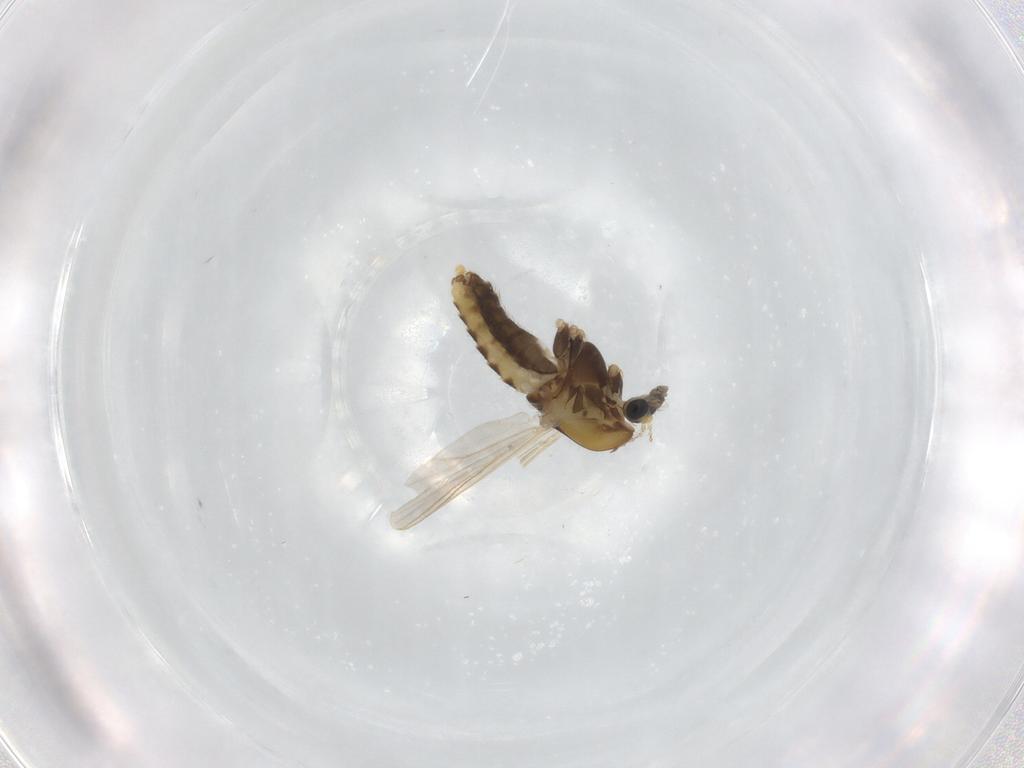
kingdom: Animalia
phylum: Arthropoda
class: Insecta
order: Diptera
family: Chironomidae
